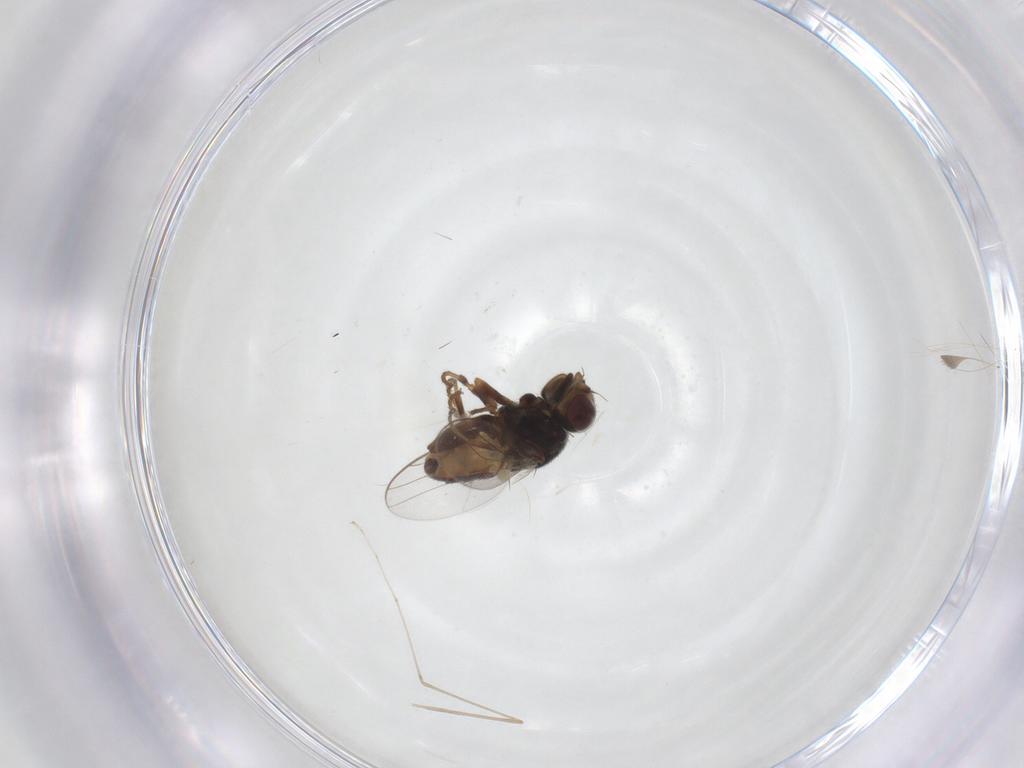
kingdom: Animalia
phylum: Arthropoda
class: Insecta
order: Diptera
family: Chloropidae
